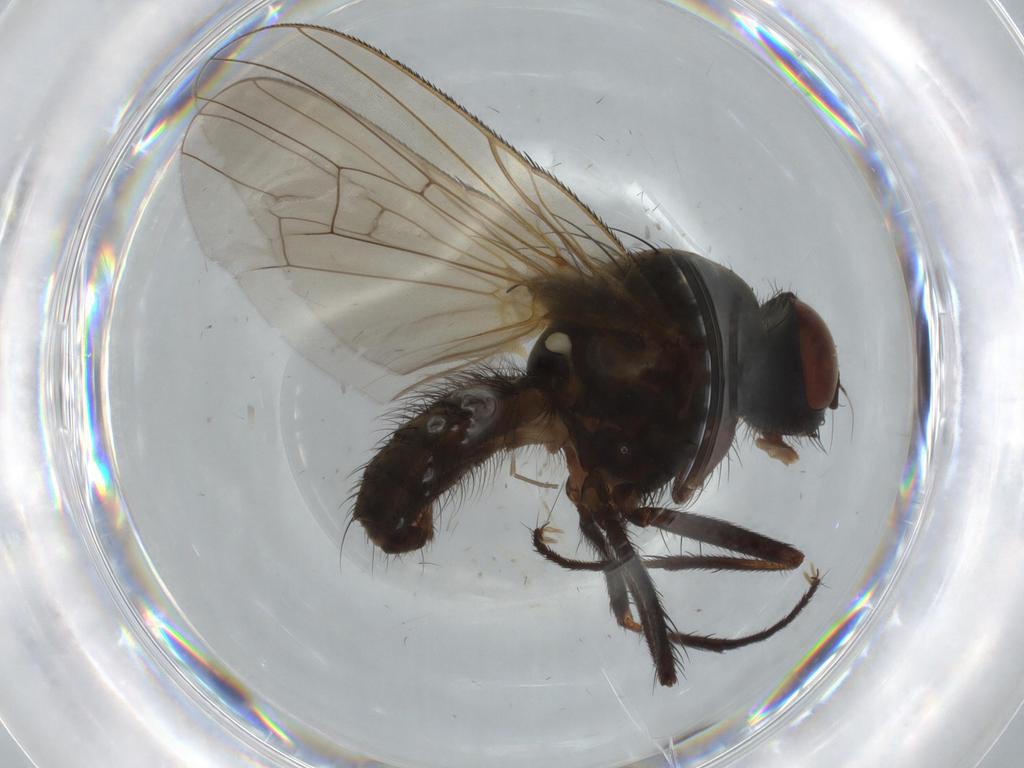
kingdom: Animalia
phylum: Arthropoda
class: Insecta
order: Diptera
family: Anthomyiidae
